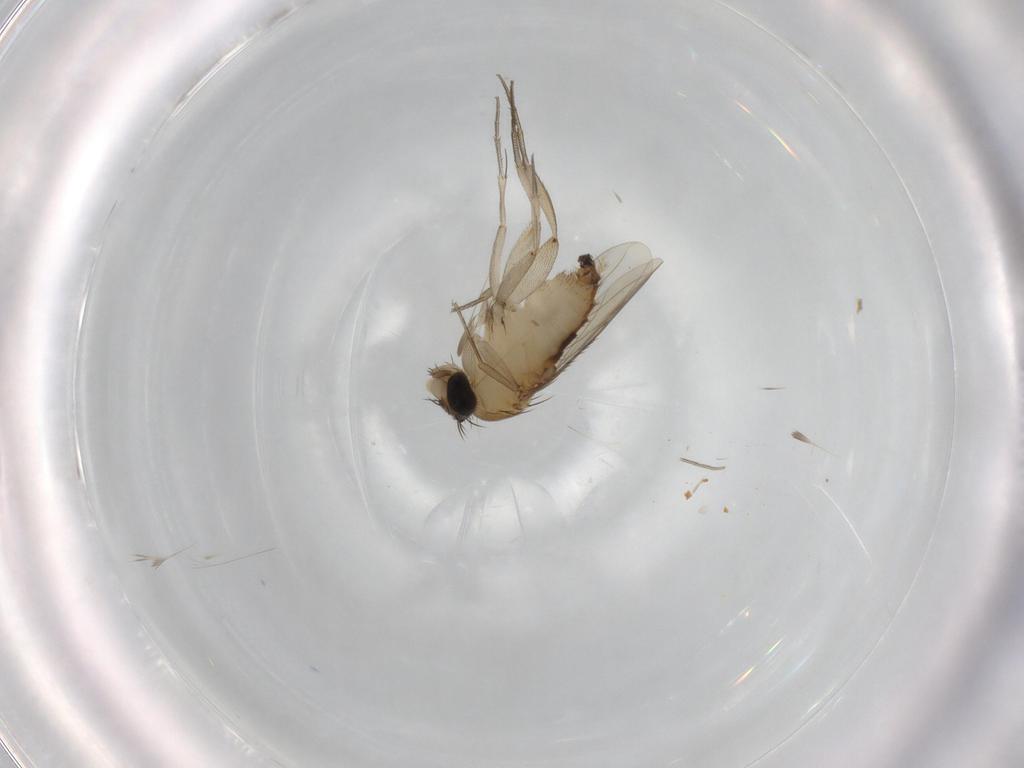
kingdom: Animalia
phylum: Arthropoda
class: Insecta
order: Diptera
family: Phoridae
